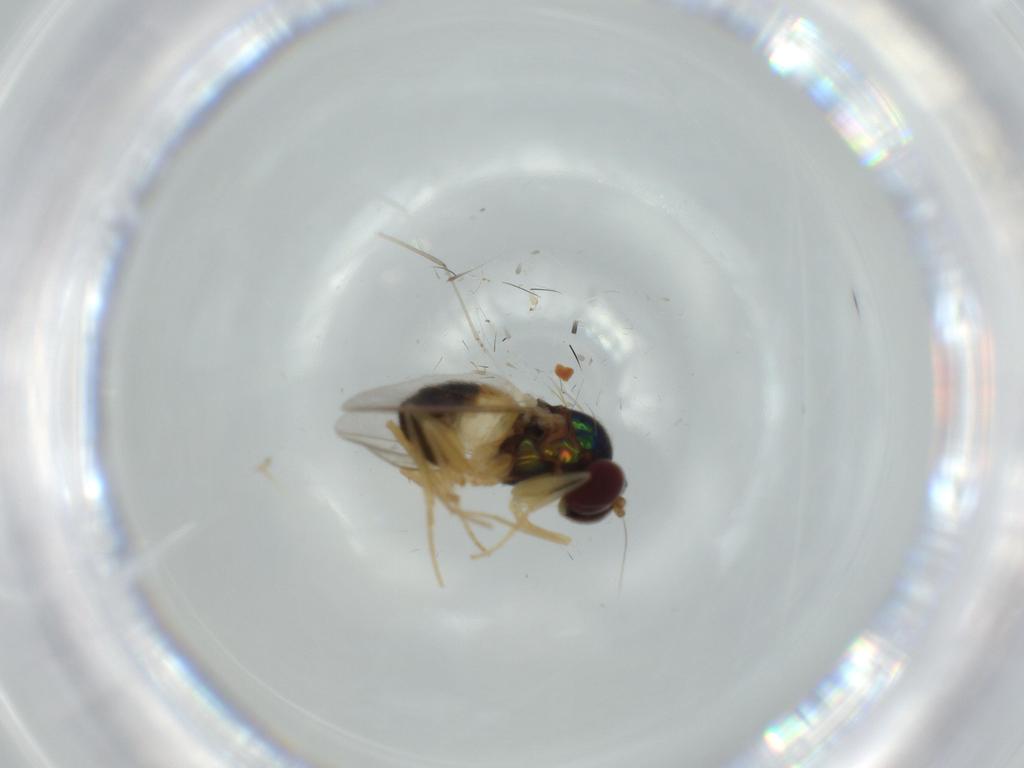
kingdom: Animalia
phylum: Arthropoda
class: Insecta
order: Diptera
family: Dolichopodidae
